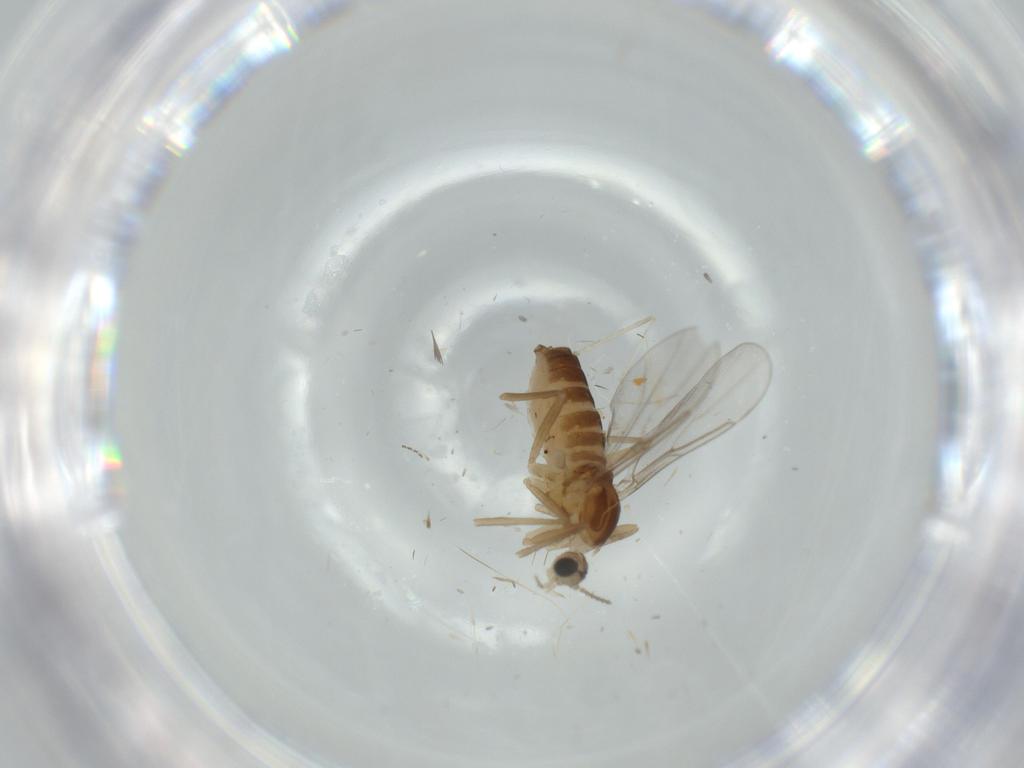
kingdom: Animalia
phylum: Arthropoda
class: Insecta
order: Diptera
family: Cecidomyiidae
